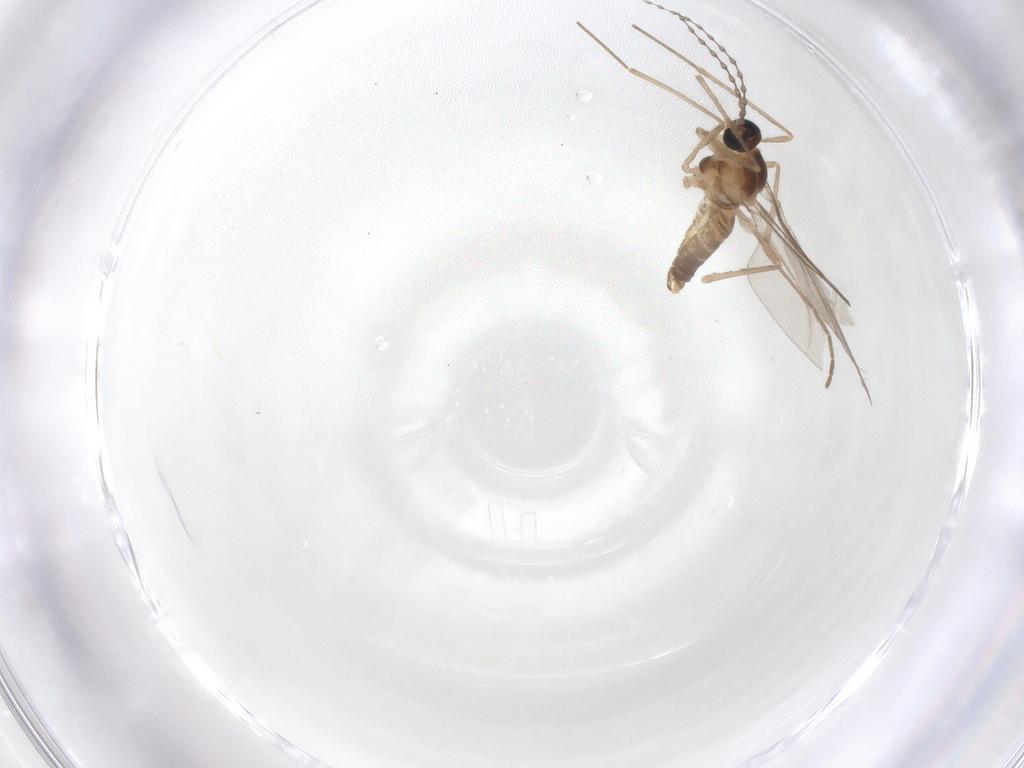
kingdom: Animalia
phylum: Arthropoda
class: Insecta
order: Diptera
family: Cecidomyiidae
